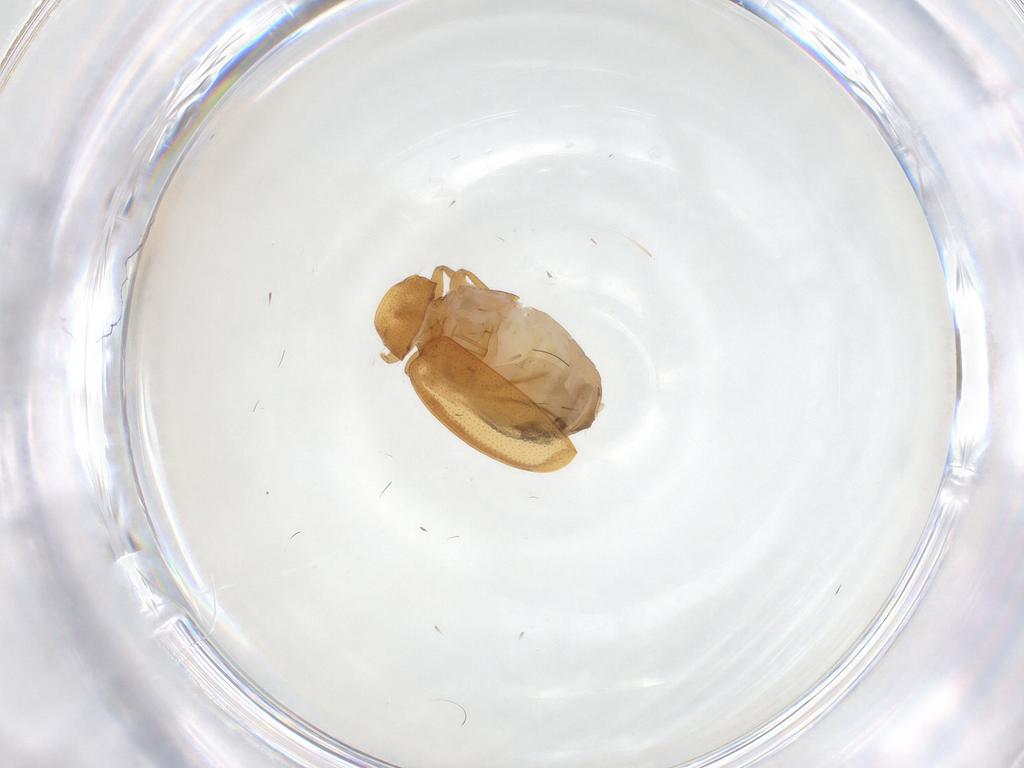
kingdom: Animalia
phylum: Arthropoda
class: Insecta
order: Coleoptera
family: Chrysomelidae
